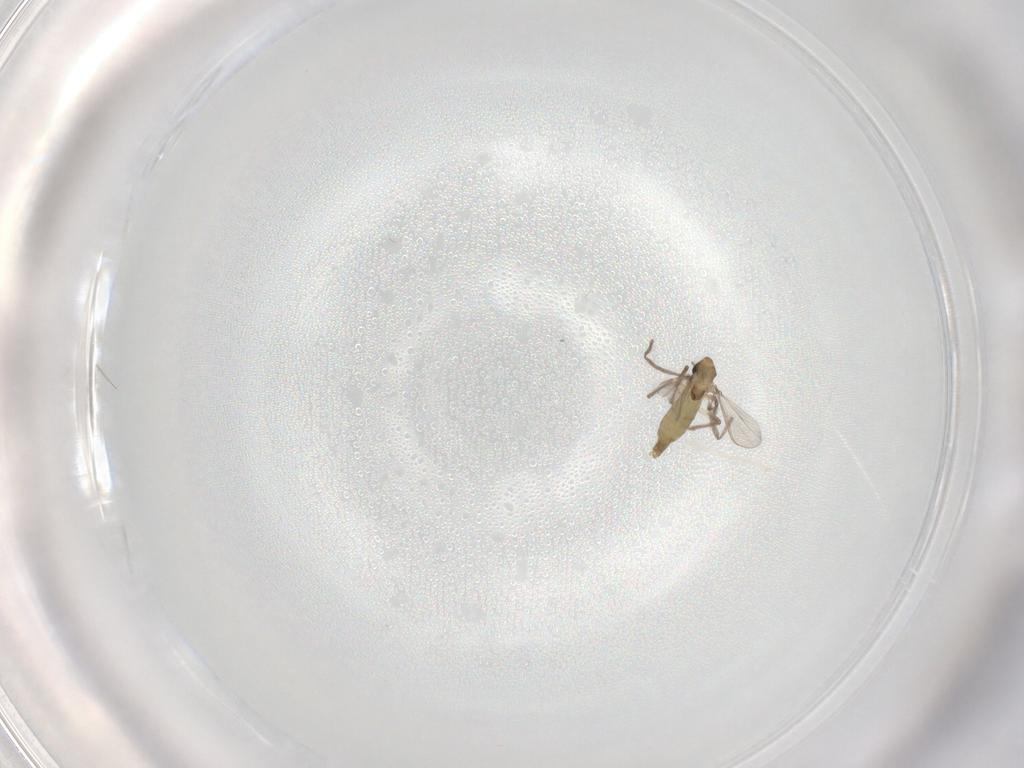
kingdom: Animalia
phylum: Arthropoda
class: Insecta
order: Diptera
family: Chironomidae
